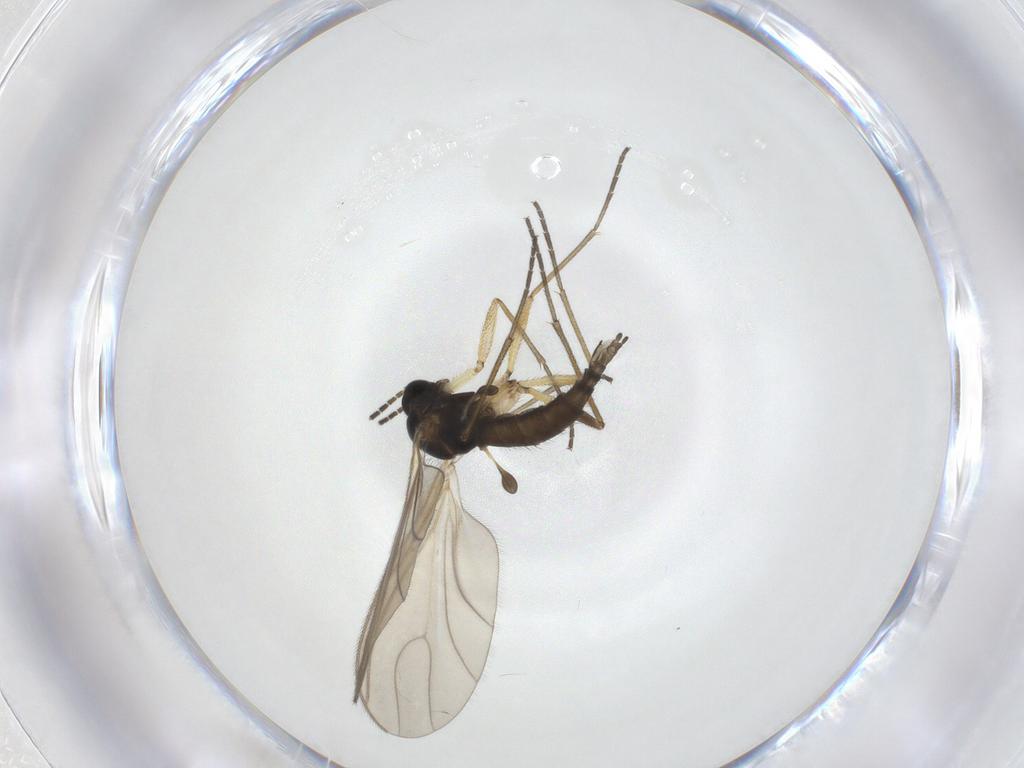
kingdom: Animalia
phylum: Arthropoda
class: Insecta
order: Diptera
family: Sciaridae
